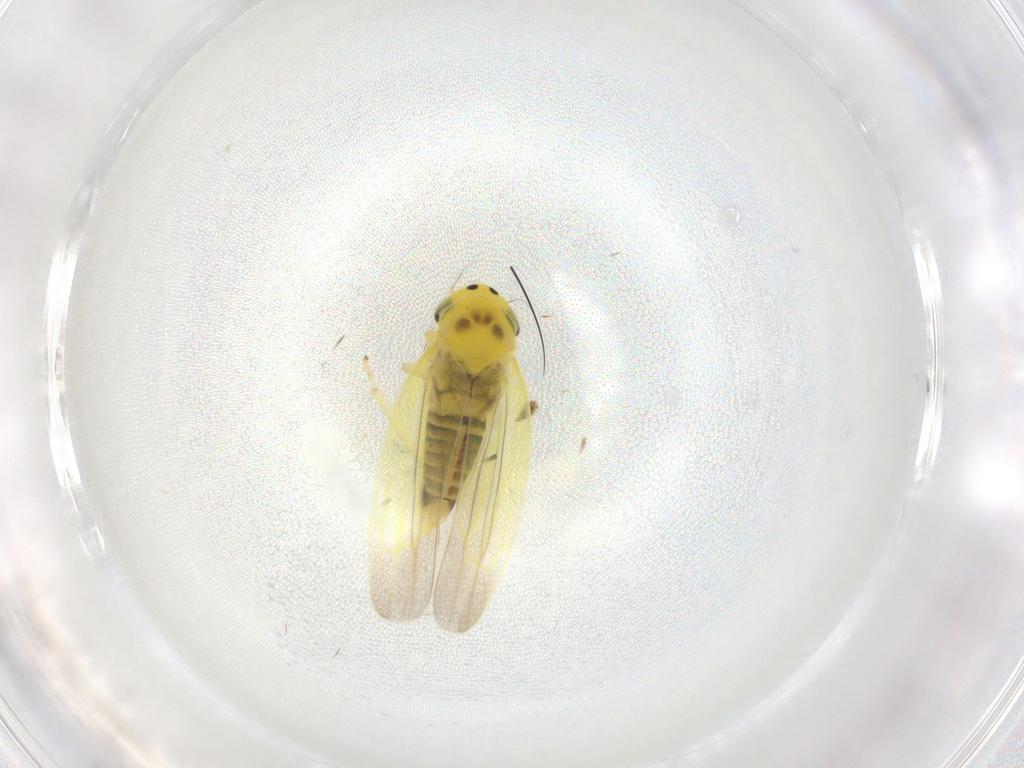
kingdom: Animalia
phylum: Arthropoda
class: Insecta
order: Hemiptera
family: Cicadellidae
